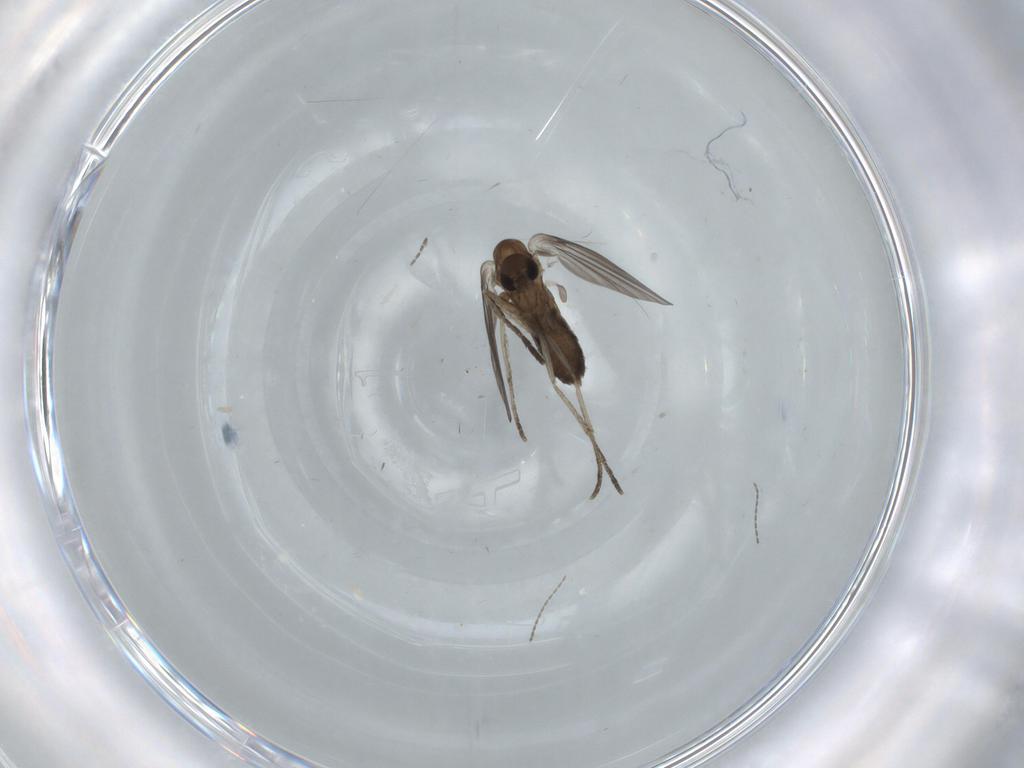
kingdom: Animalia
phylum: Arthropoda
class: Insecta
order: Diptera
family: Psychodidae
